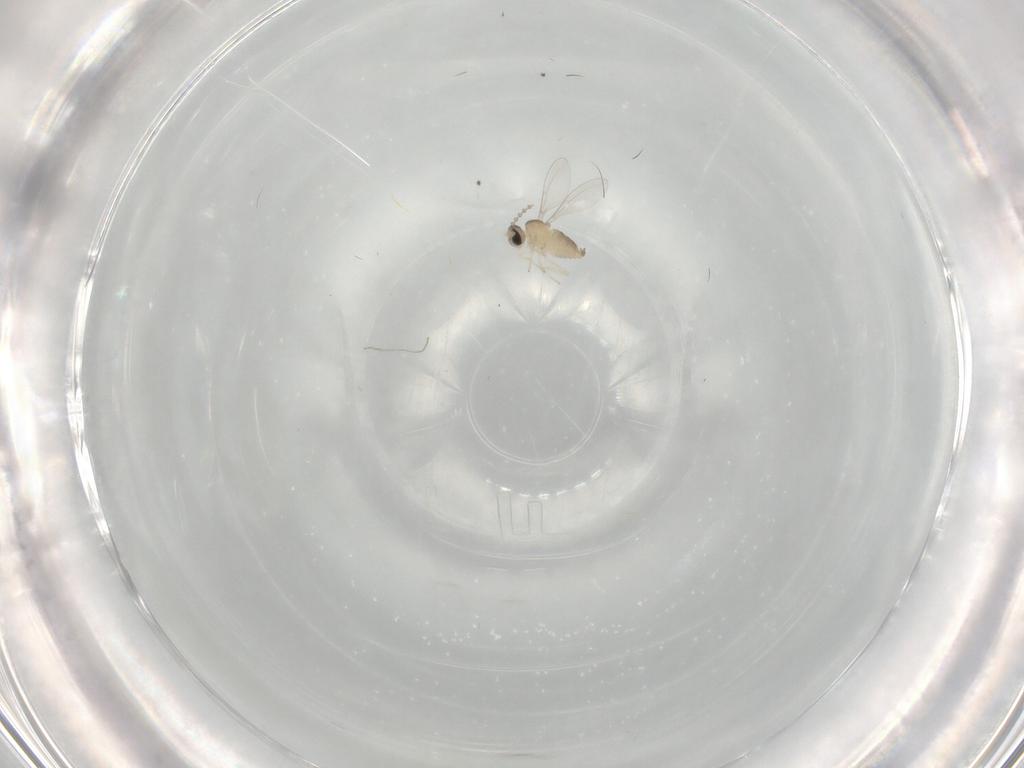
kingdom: Animalia
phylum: Arthropoda
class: Insecta
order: Diptera
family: Cecidomyiidae
